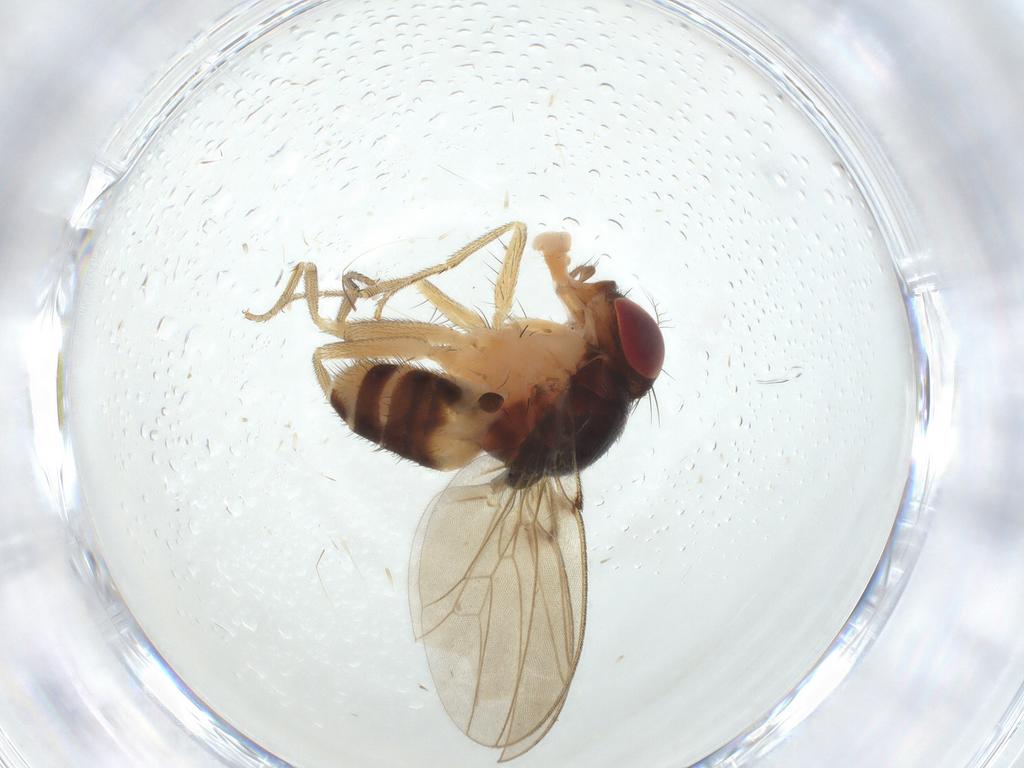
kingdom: Animalia
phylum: Arthropoda
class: Insecta
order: Diptera
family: Drosophilidae
